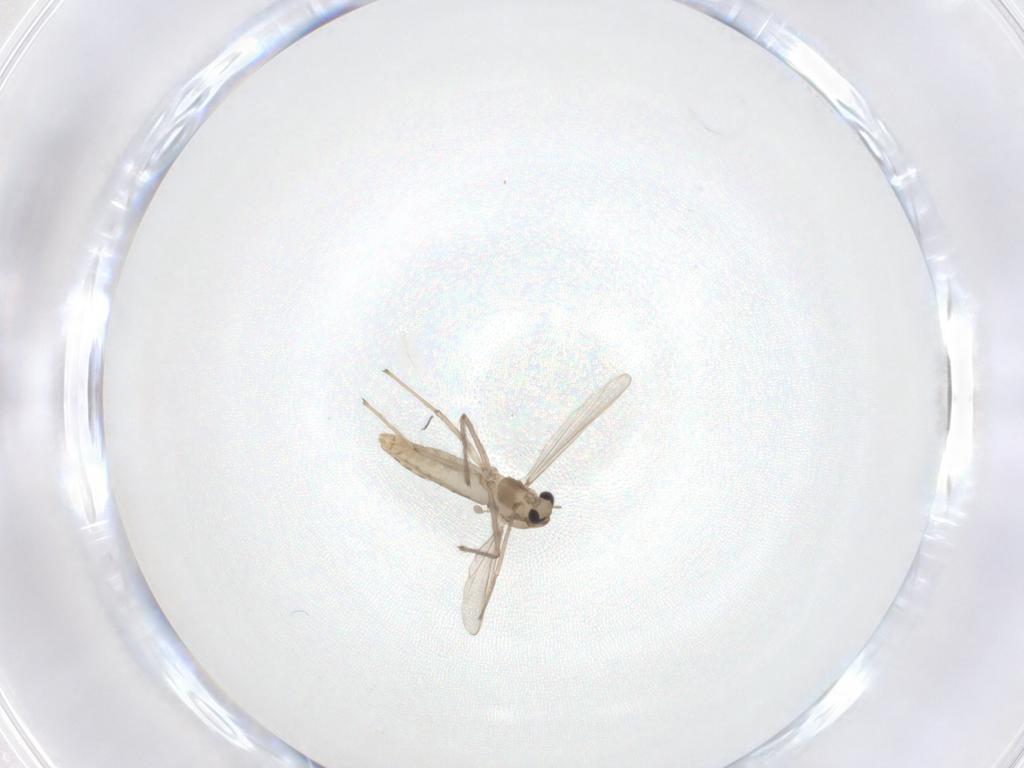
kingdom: Animalia
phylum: Arthropoda
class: Insecta
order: Diptera
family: Chironomidae
